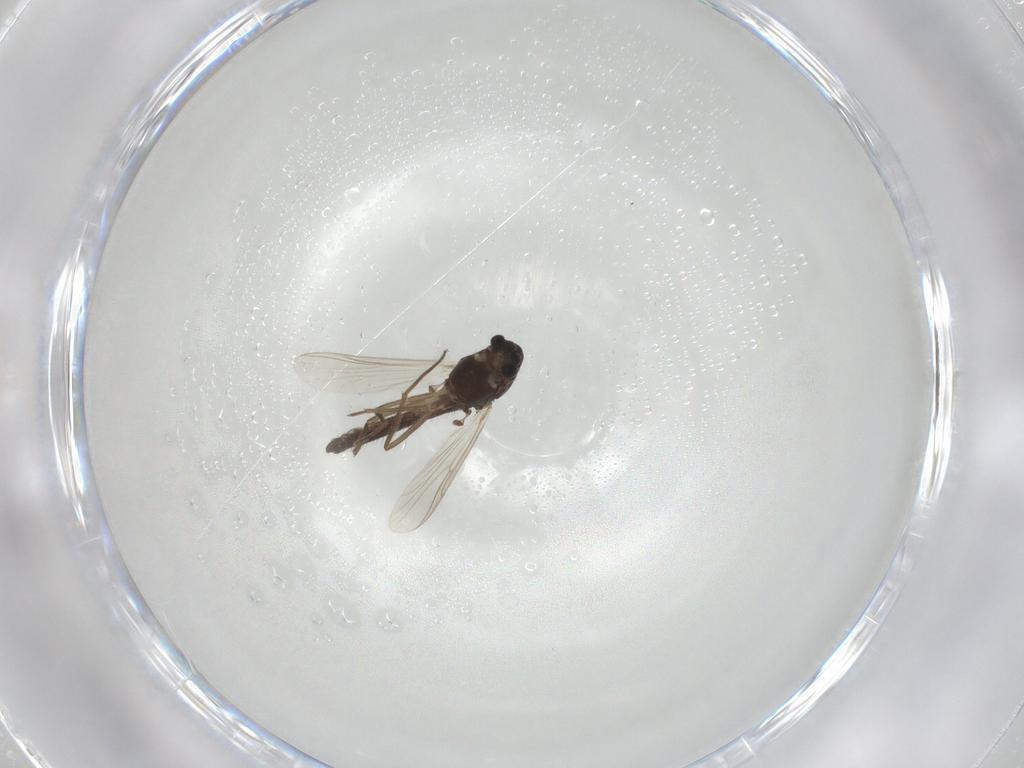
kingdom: Animalia
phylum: Arthropoda
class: Insecta
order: Diptera
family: Chironomidae
